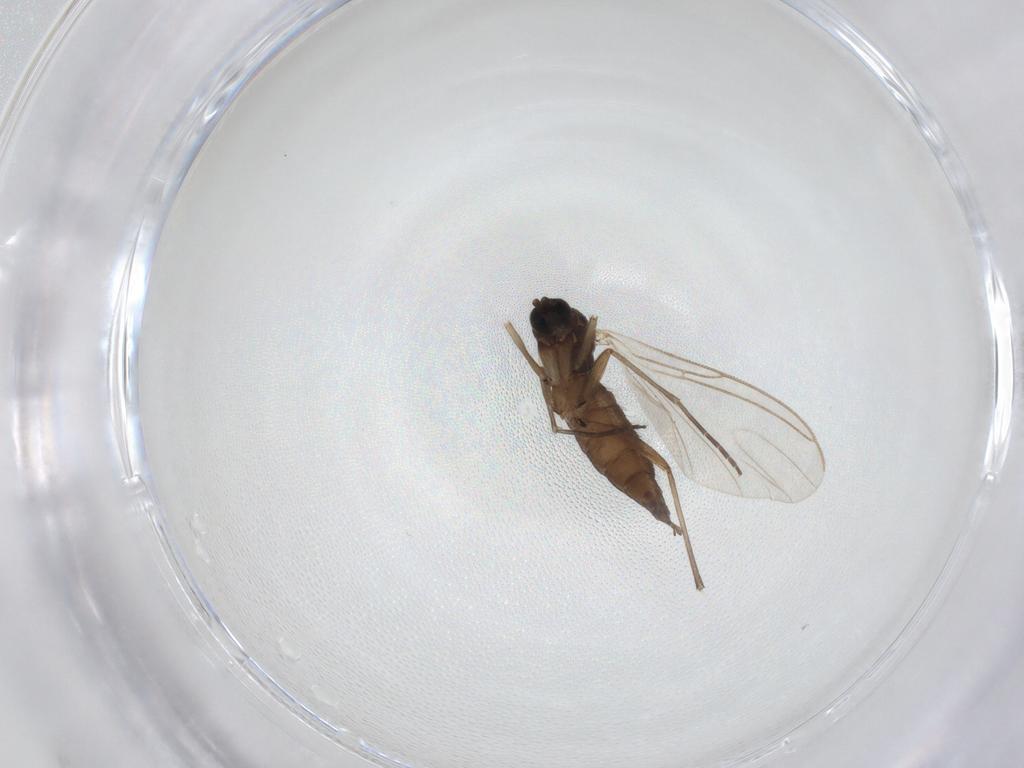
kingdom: Animalia
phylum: Arthropoda
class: Insecta
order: Diptera
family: Sciaridae
